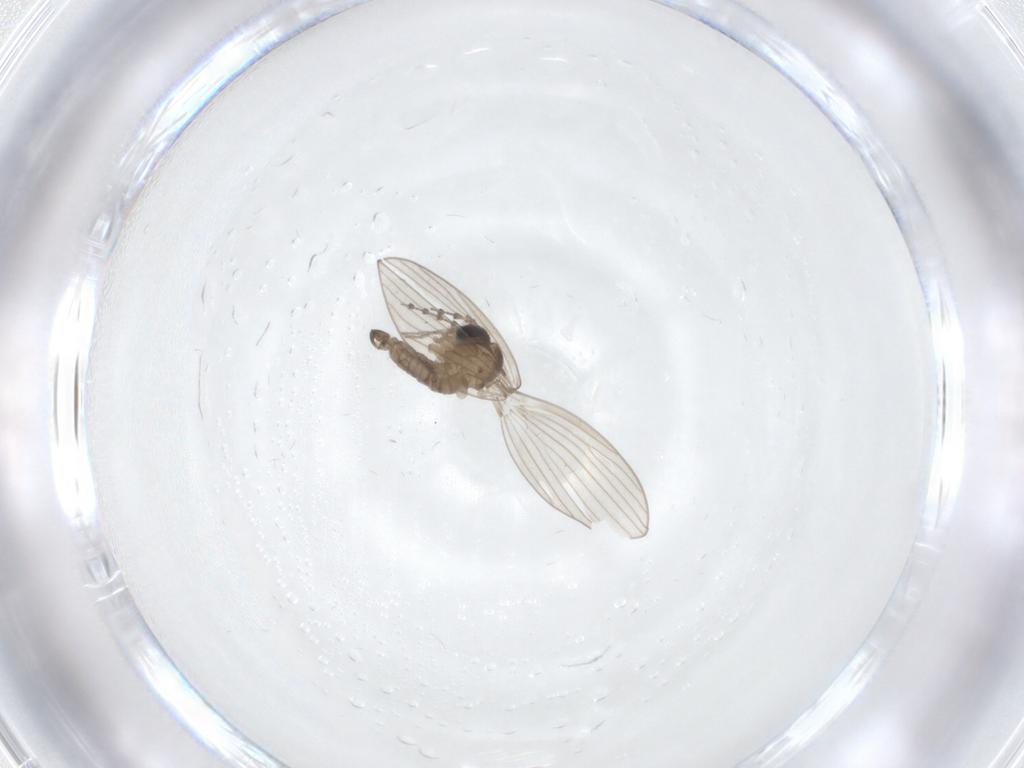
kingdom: Animalia
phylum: Arthropoda
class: Insecta
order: Diptera
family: Psychodidae
